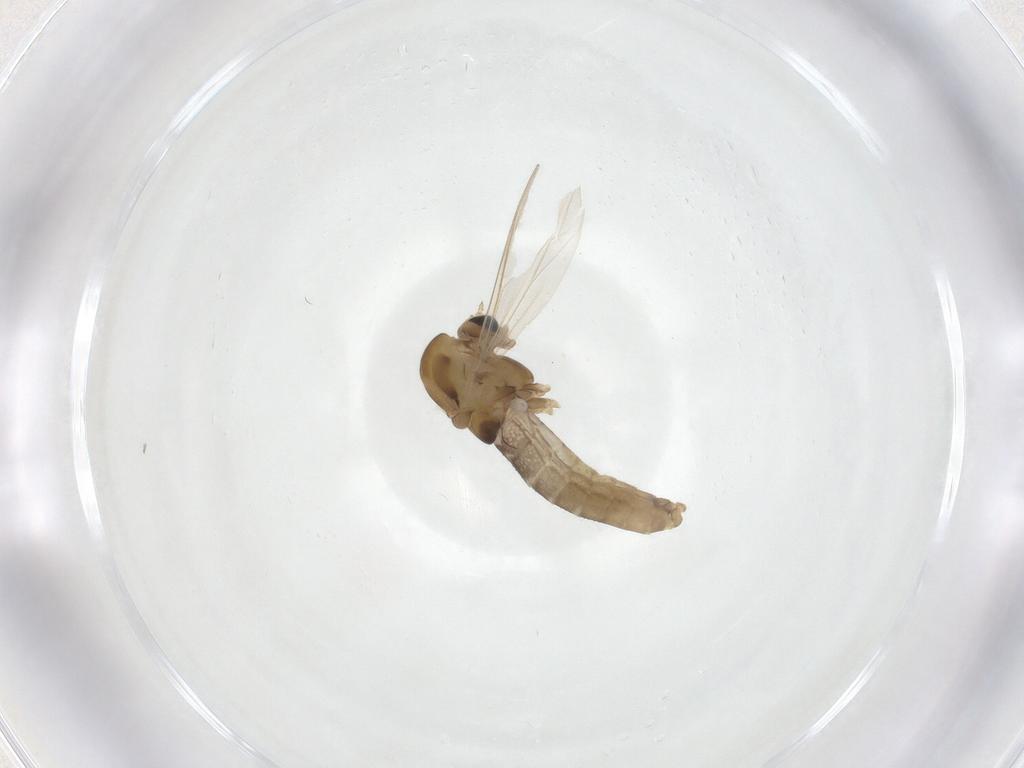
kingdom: Animalia
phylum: Arthropoda
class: Insecta
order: Diptera
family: Chironomidae
